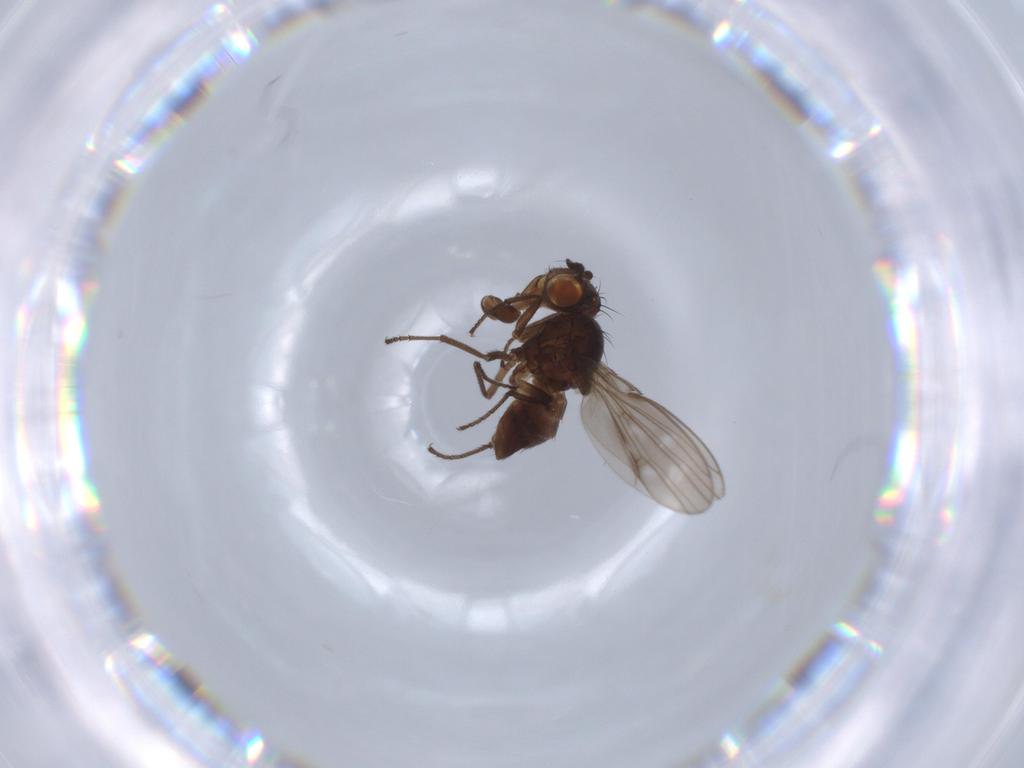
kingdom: Animalia
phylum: Arthropoda
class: Insecta
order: Diptera
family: Ephydridae
